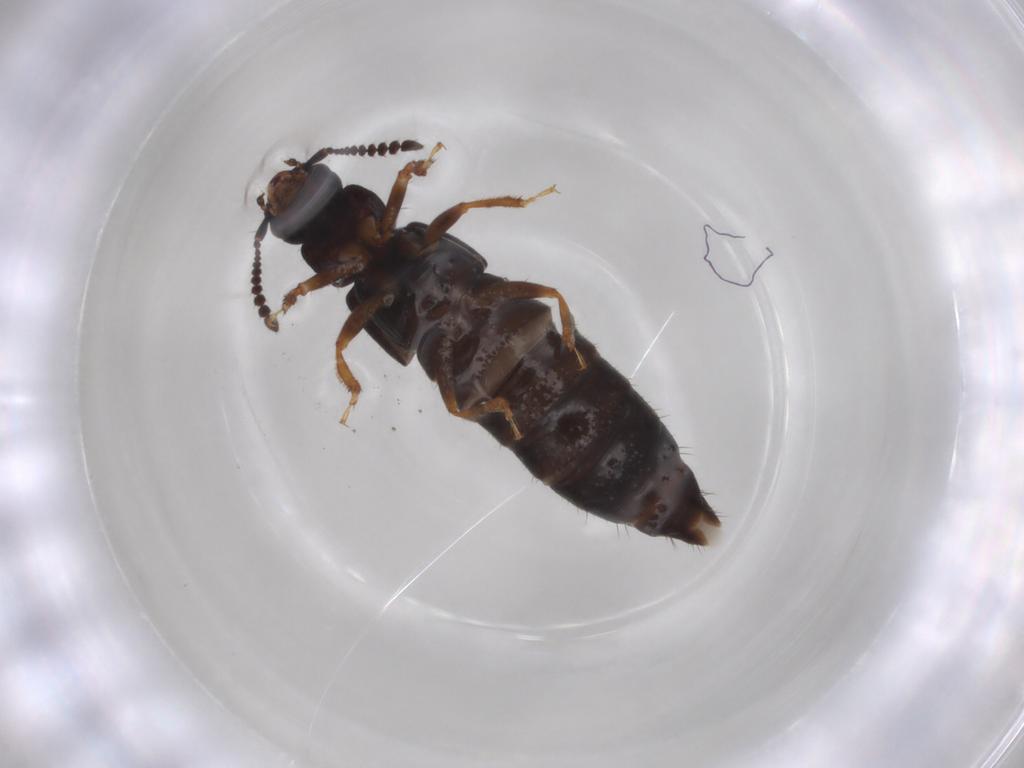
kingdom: Animalia
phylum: Arthropoda
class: Insecta
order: Coleoptera
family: Staphylinidae
